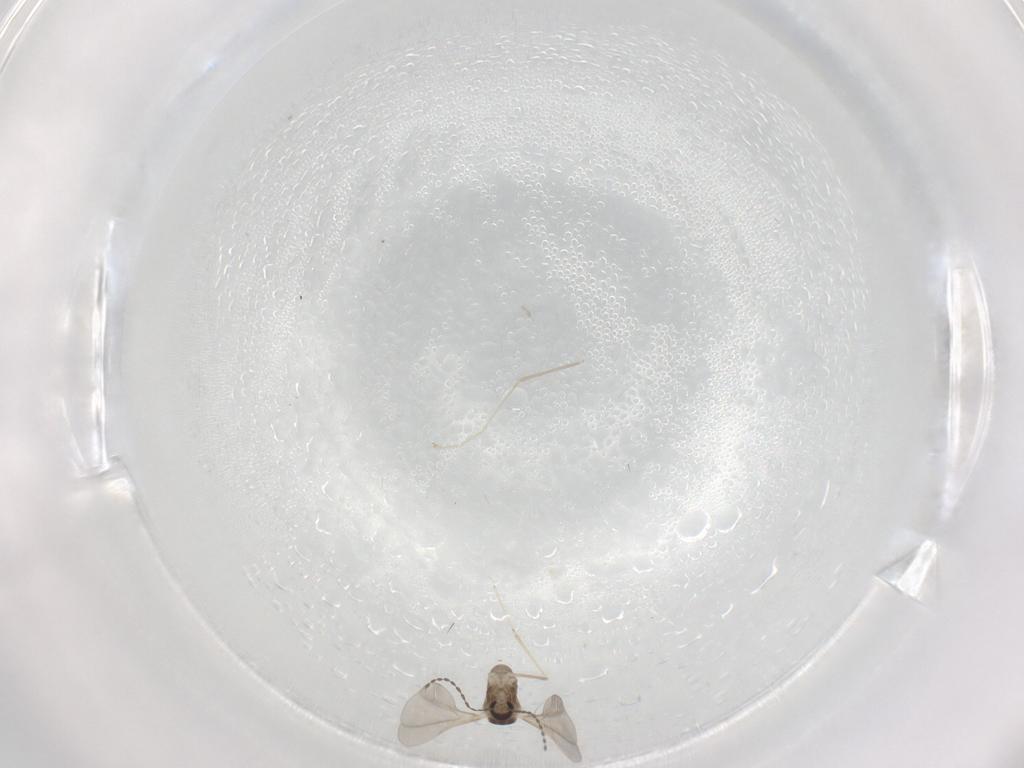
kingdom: Animalia
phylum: Arthropoda
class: Insecta
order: Diptera
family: Cecidomyiidae
